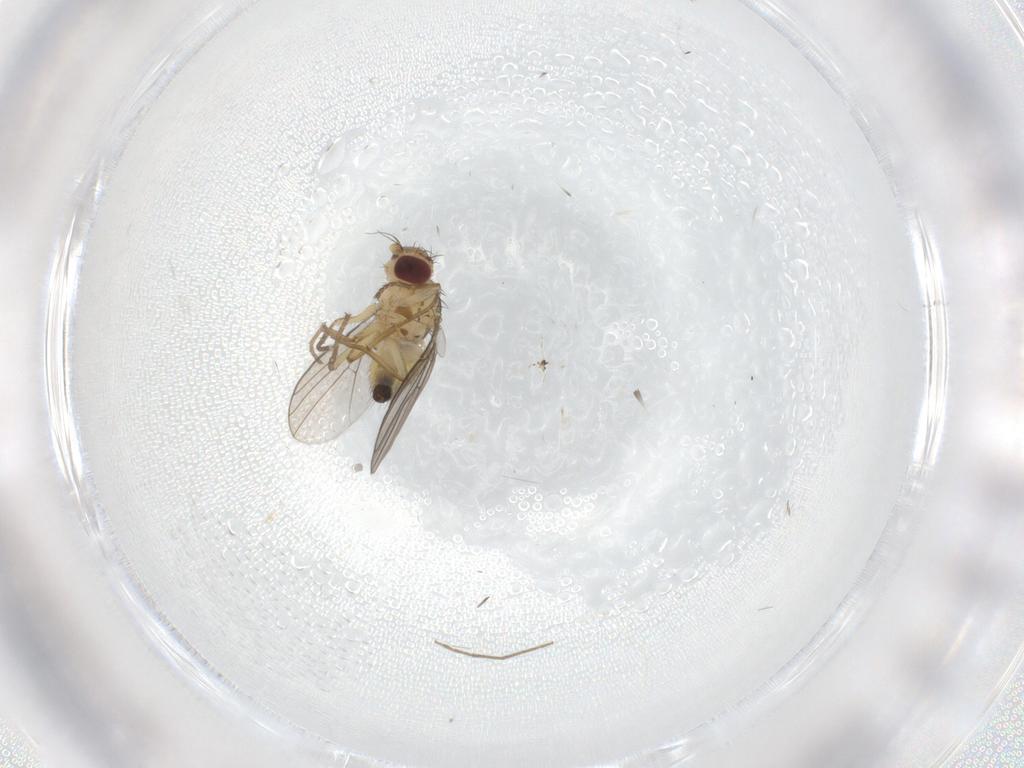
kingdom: Animalia
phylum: Arthropoda
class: Insecta
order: Diptera
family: Agromyzidae
